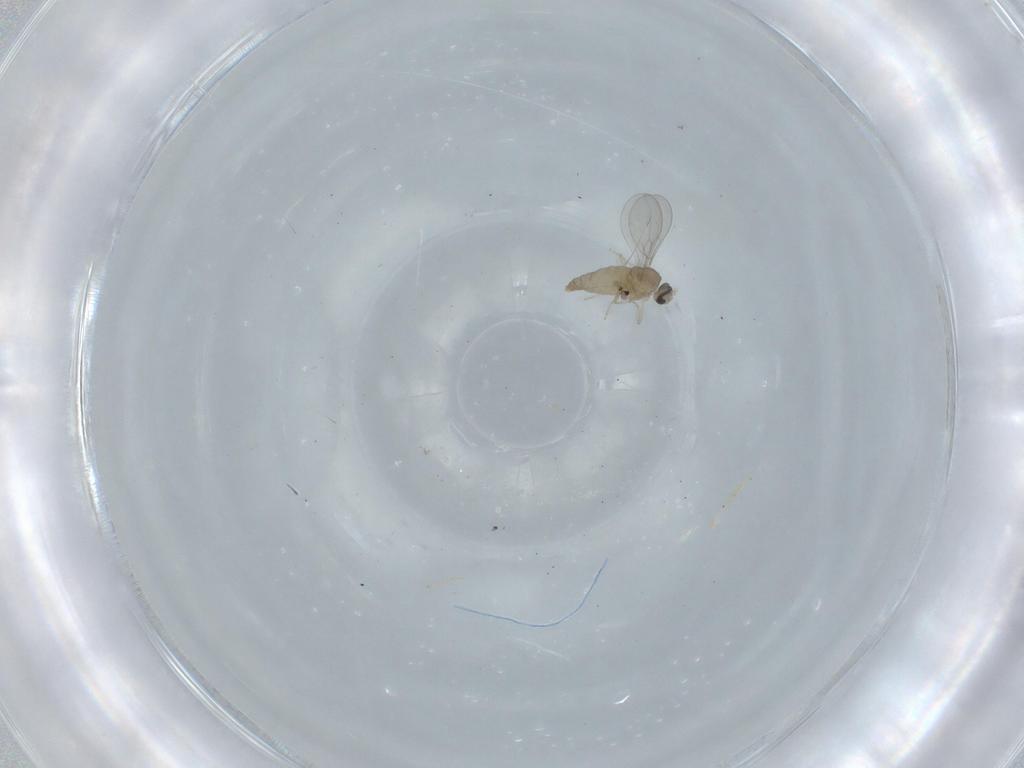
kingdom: Animalia
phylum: Arthropoda
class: Insecta
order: Diptera
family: Cecidomyiidae
